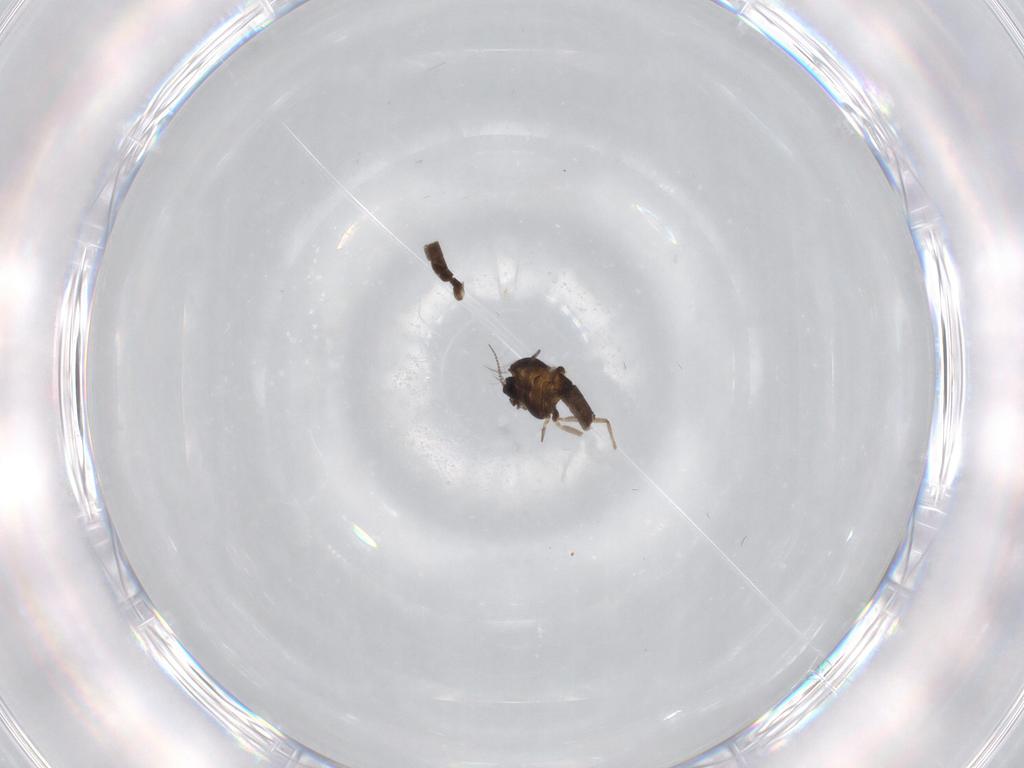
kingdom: Animalia
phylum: Arthropoda
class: Insecta
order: Diptera
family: Chironomidae
